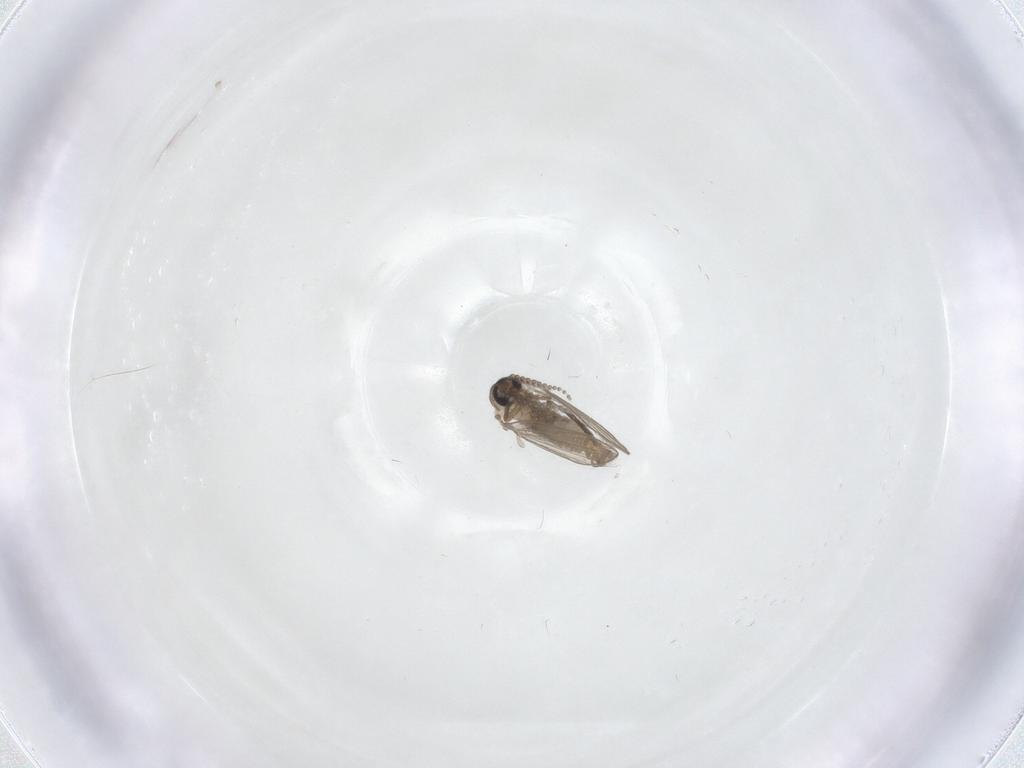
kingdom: Animalia
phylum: Arthropoda
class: Insecta
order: Diptera
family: Psychodidae
